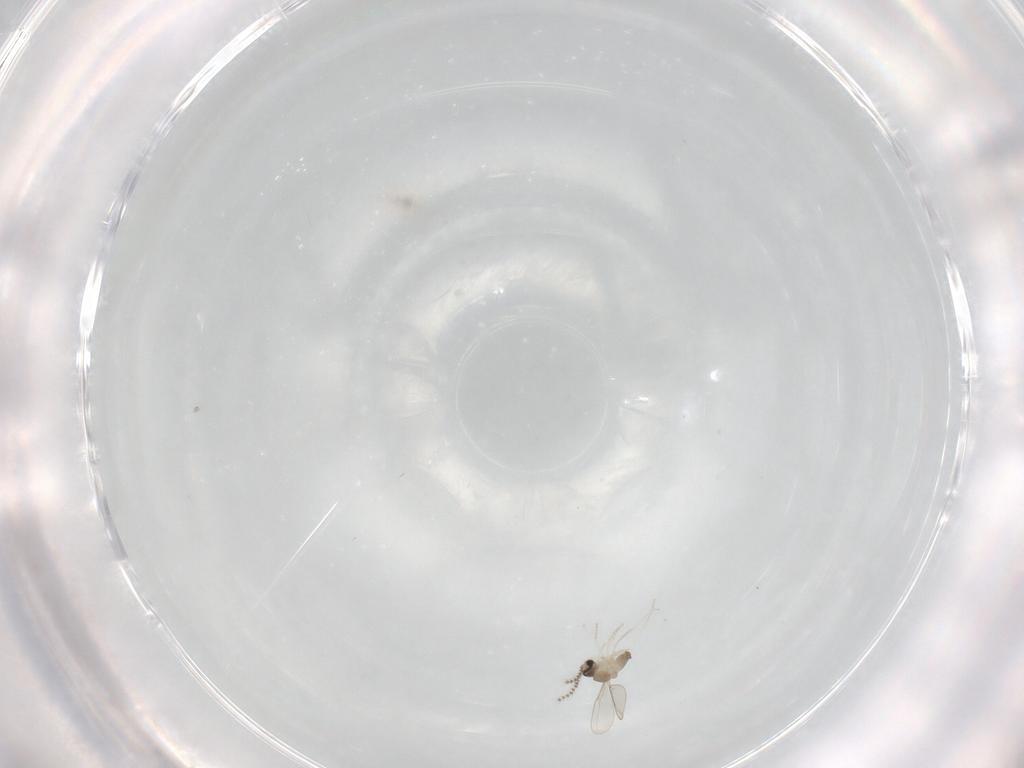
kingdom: Animalia
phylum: Arthropoda
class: Insecta
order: Diptera
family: Cecidomyiidae
